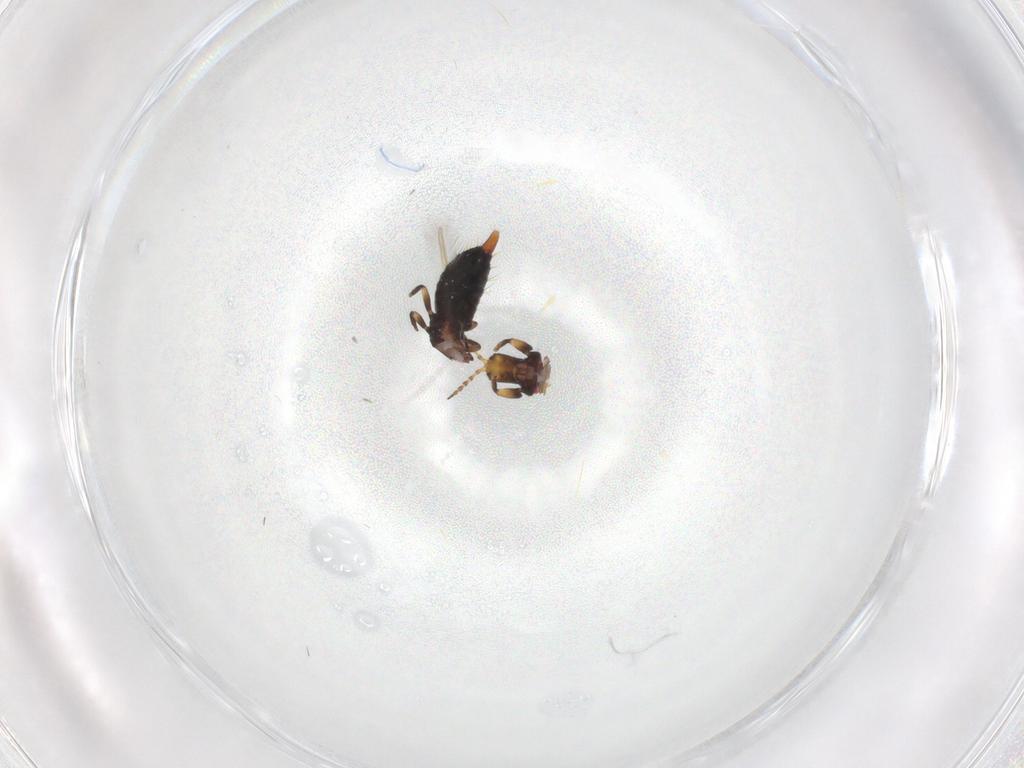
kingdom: Animalia
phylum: Arthropoda
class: Insecta
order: Thysanoptera
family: Phlaeothripidae
